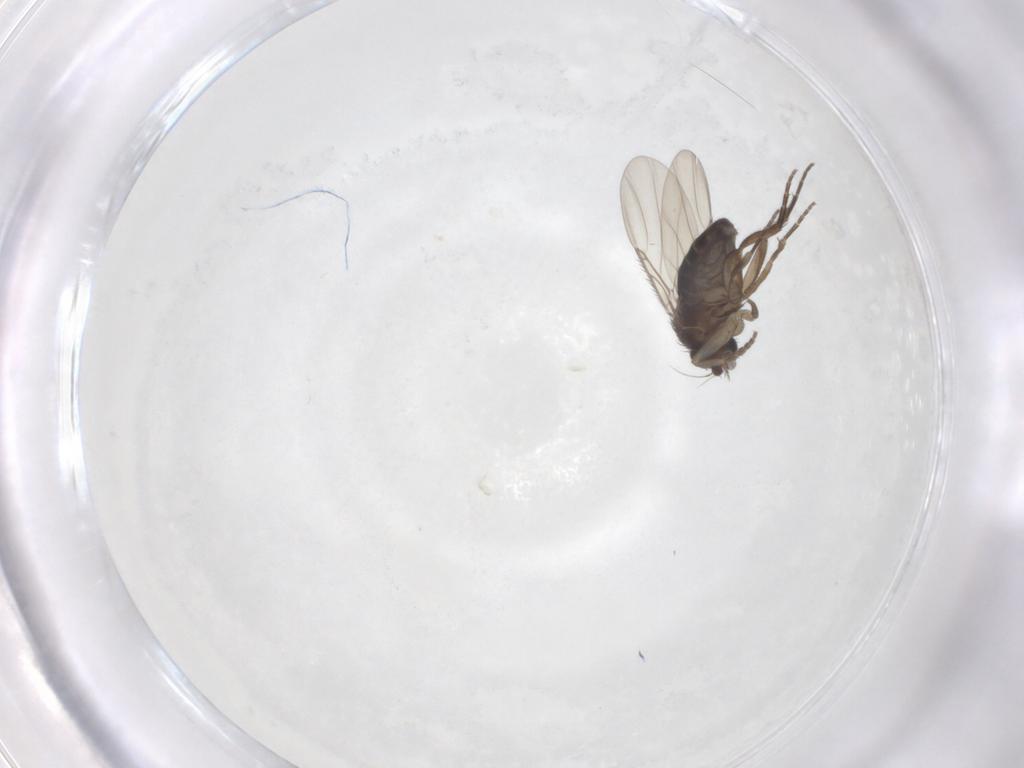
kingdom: Animalia
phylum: Arthropoda
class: Insecta
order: Diptera
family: Phoridae
